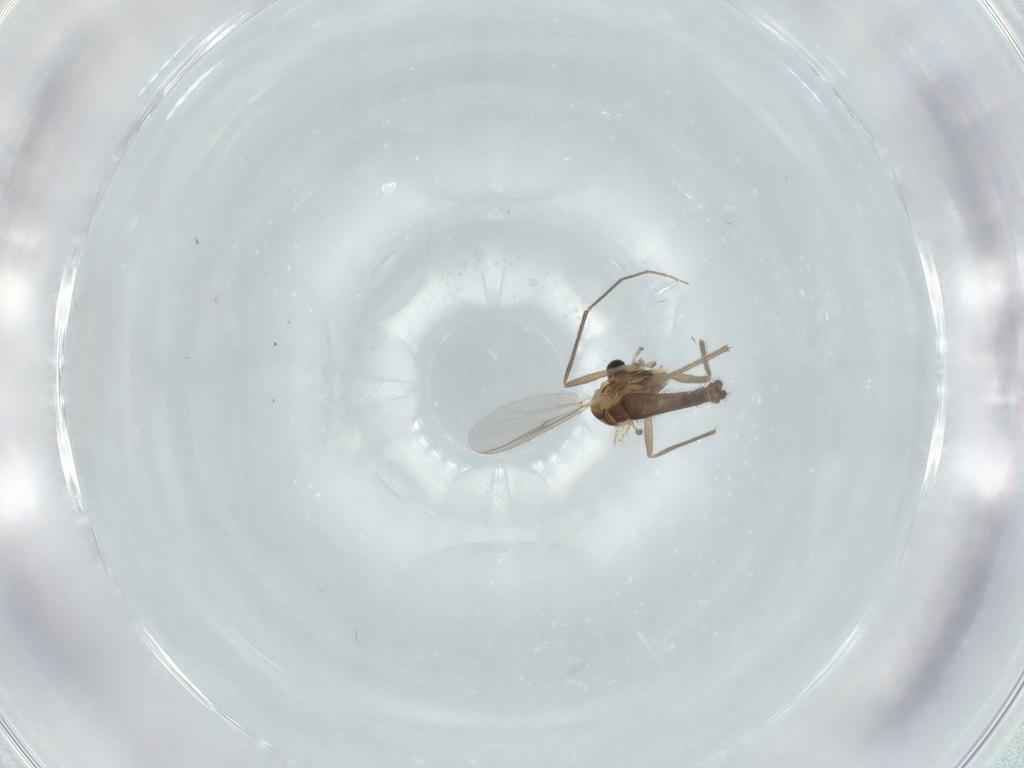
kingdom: Animalia
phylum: Arthropoda
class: Insecta
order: Diptera
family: Chironomidae
